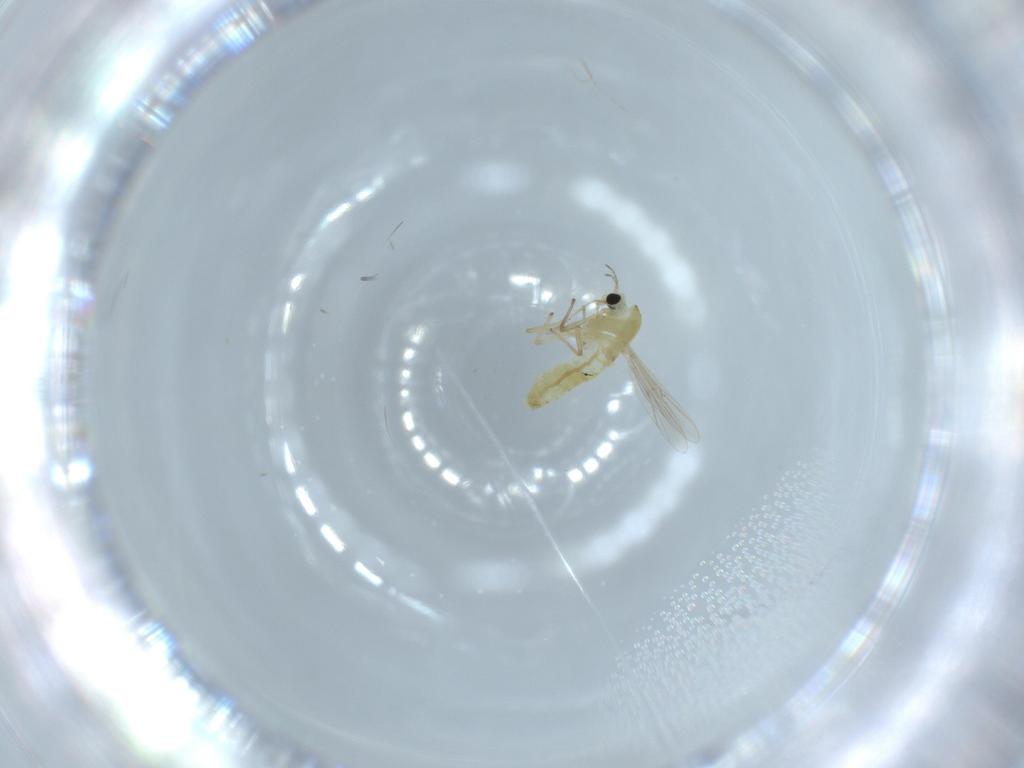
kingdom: Animalia
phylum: Arthropoda
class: Insecta
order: Diptera
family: Chironomidae
